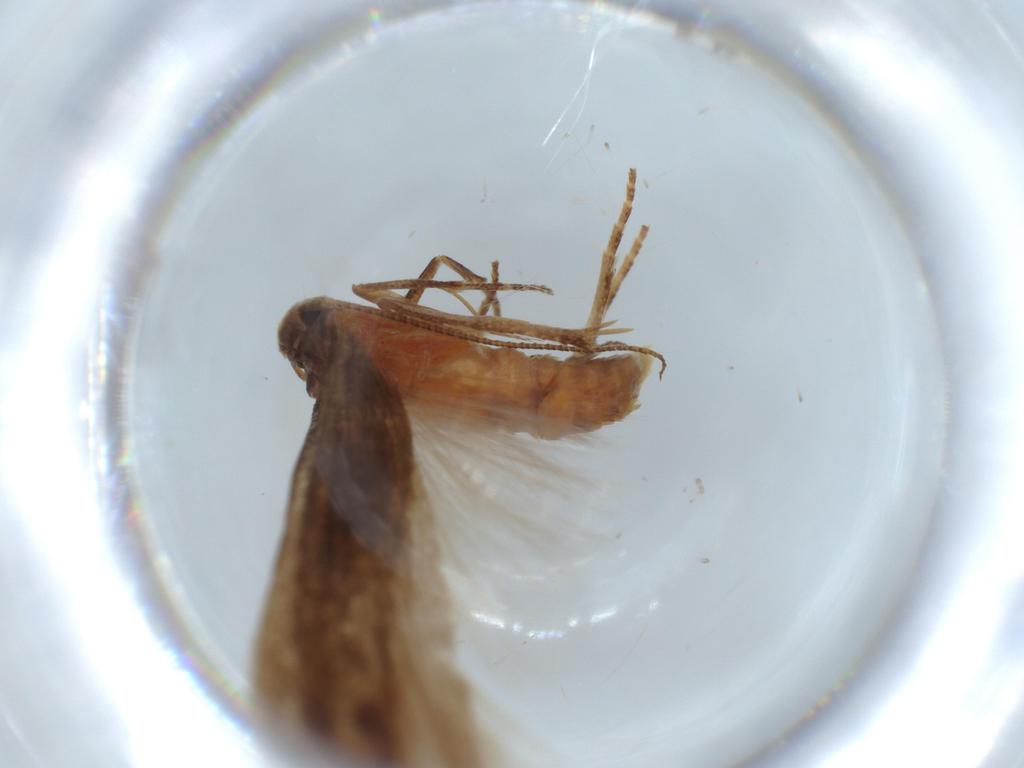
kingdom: Animalia
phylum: Arthropoda
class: Insecta
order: Lepidoptera
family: Stathmopodidae
